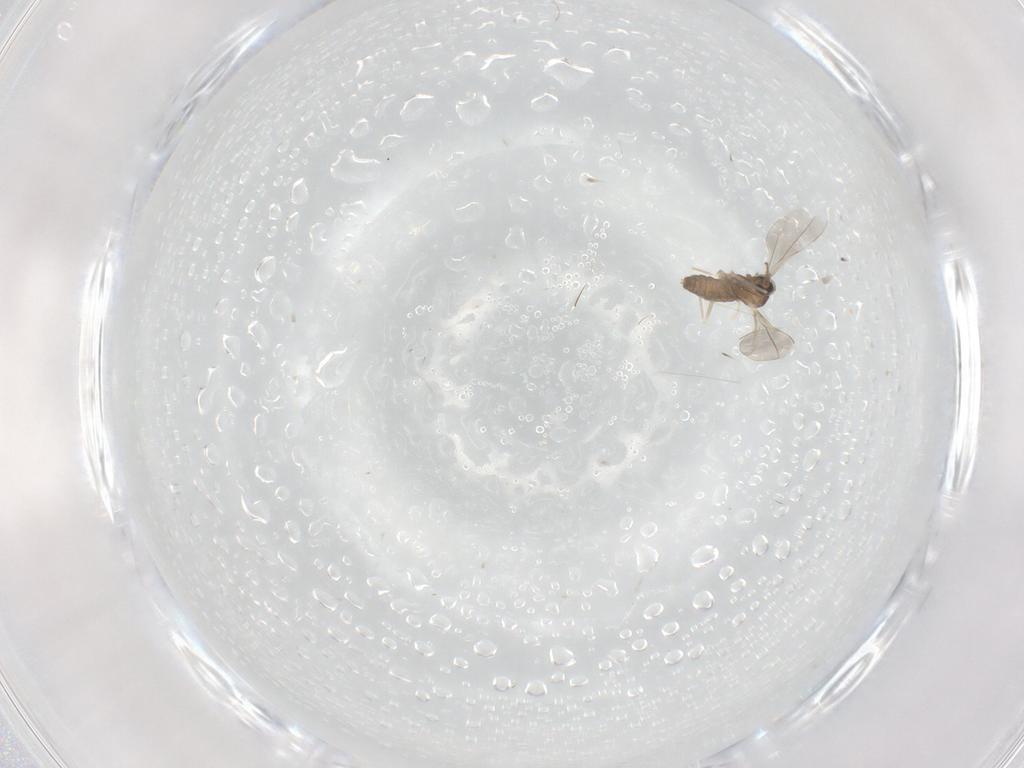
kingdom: Animalia
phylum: Arthropoda
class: Insecta
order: Diptera
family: Cecidomyiidae
